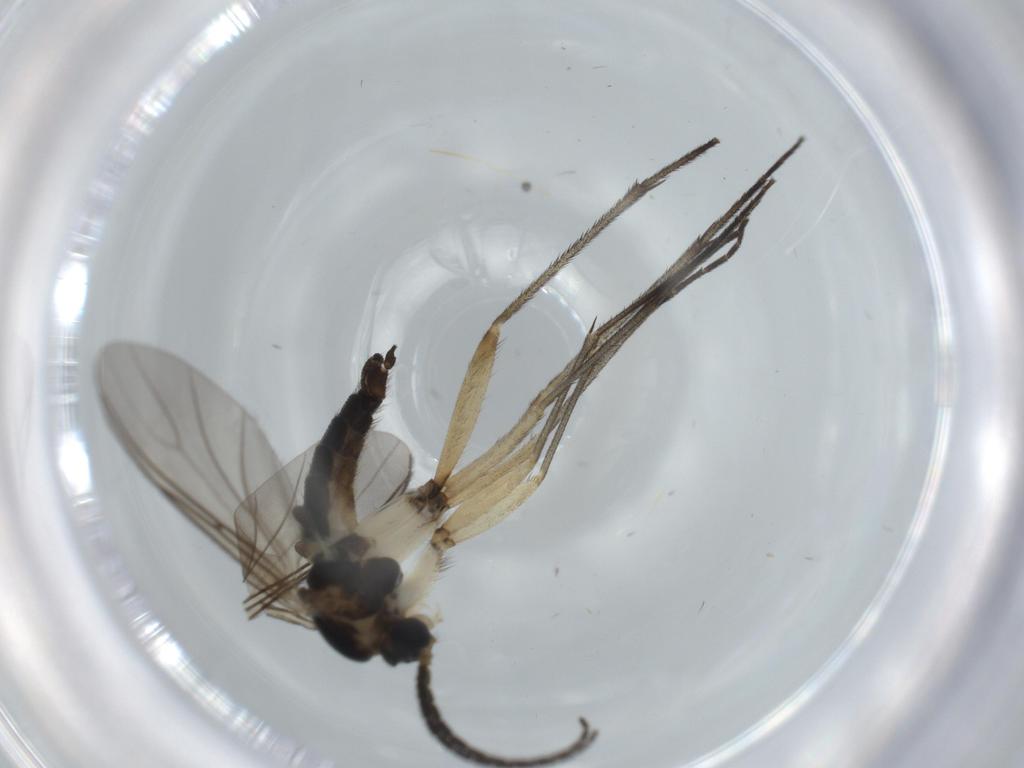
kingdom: Animalia
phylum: Arthropoda
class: Insecta
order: Diptera
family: Sciaridae
